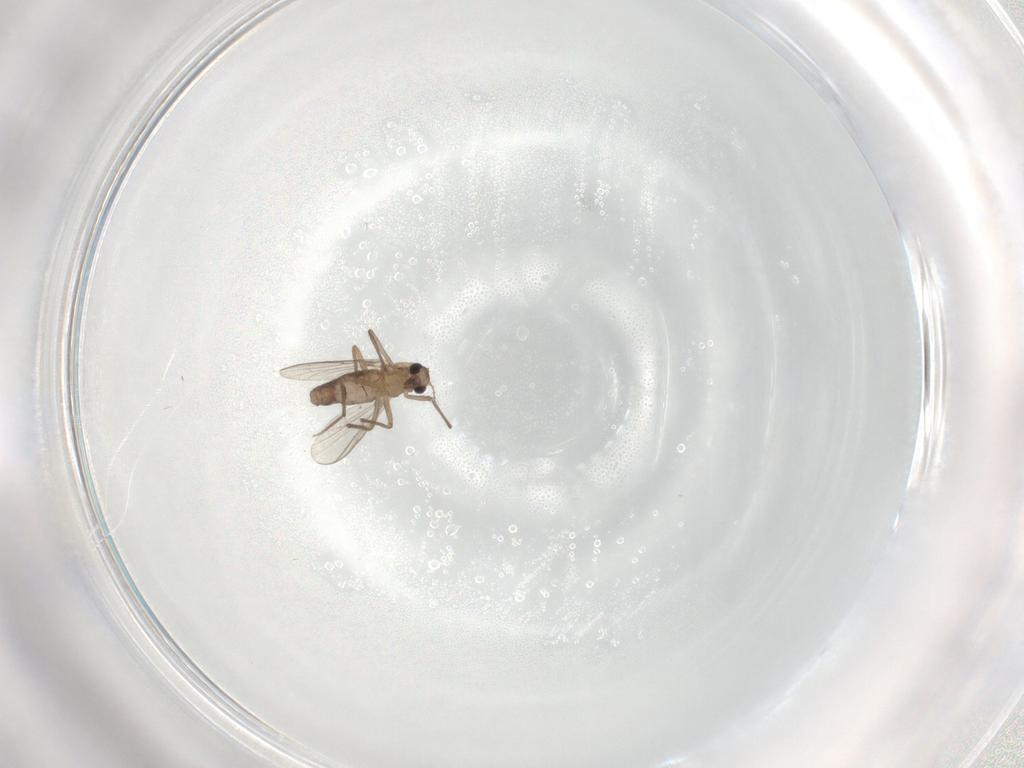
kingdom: Animalia
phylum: Arthropoda
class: Insecta
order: Diptera
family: Chironomidae
